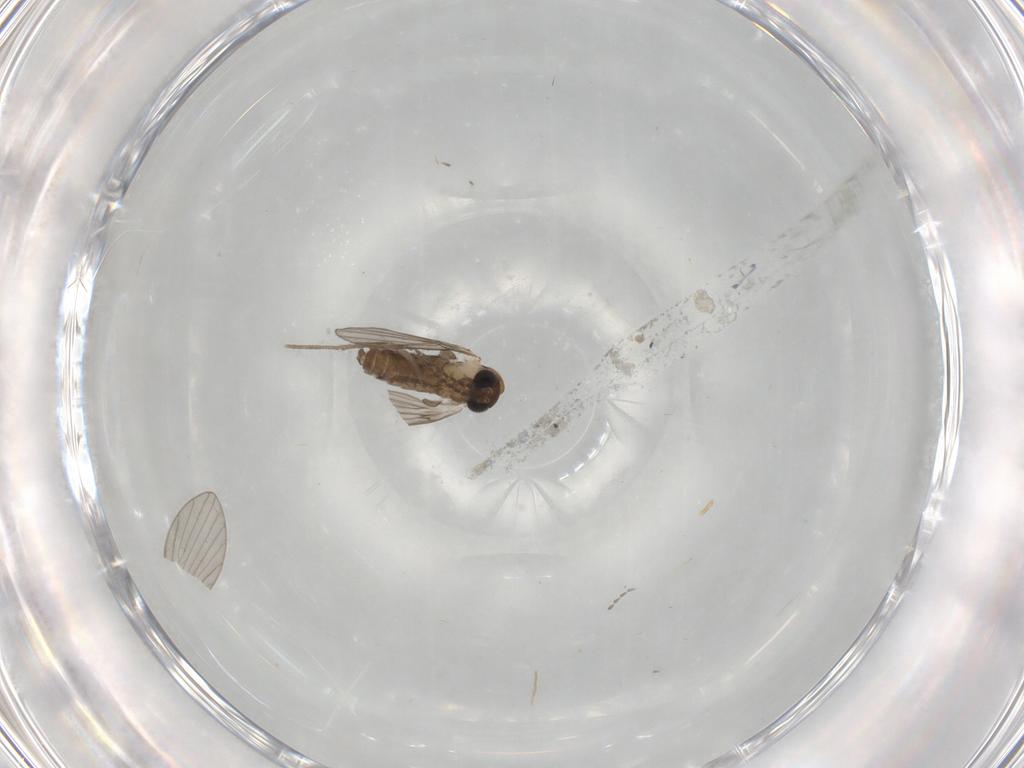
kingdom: Animalia
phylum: Arthropoda
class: Insecta
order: Diptera
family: Psychodidae
